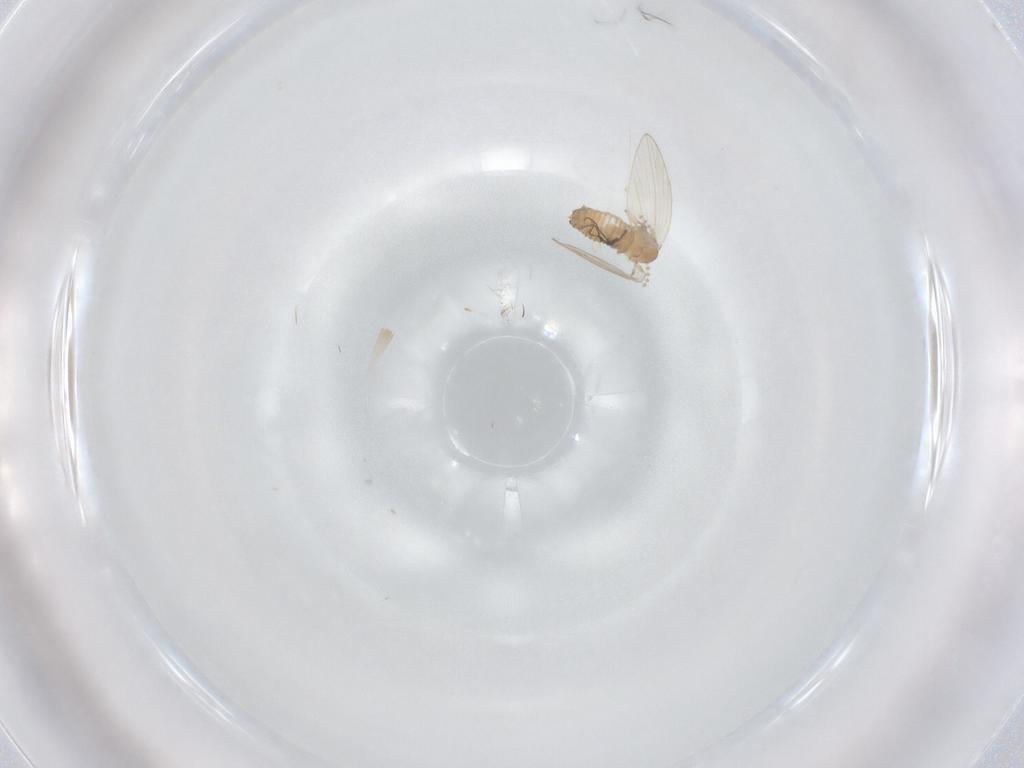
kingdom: Animalia
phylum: Arthropoda
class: Insecta
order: Diptera
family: Psychodidae
